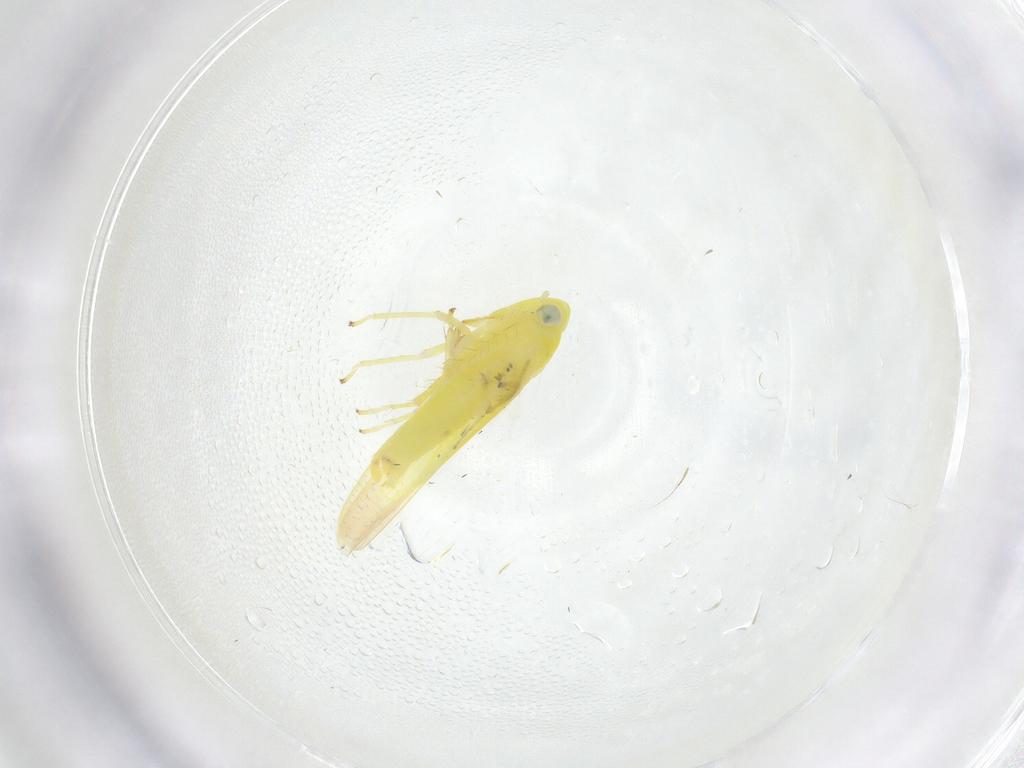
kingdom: Animalia
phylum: Arthropoda
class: Insecta
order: Hemiptera
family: Cicadellidae
